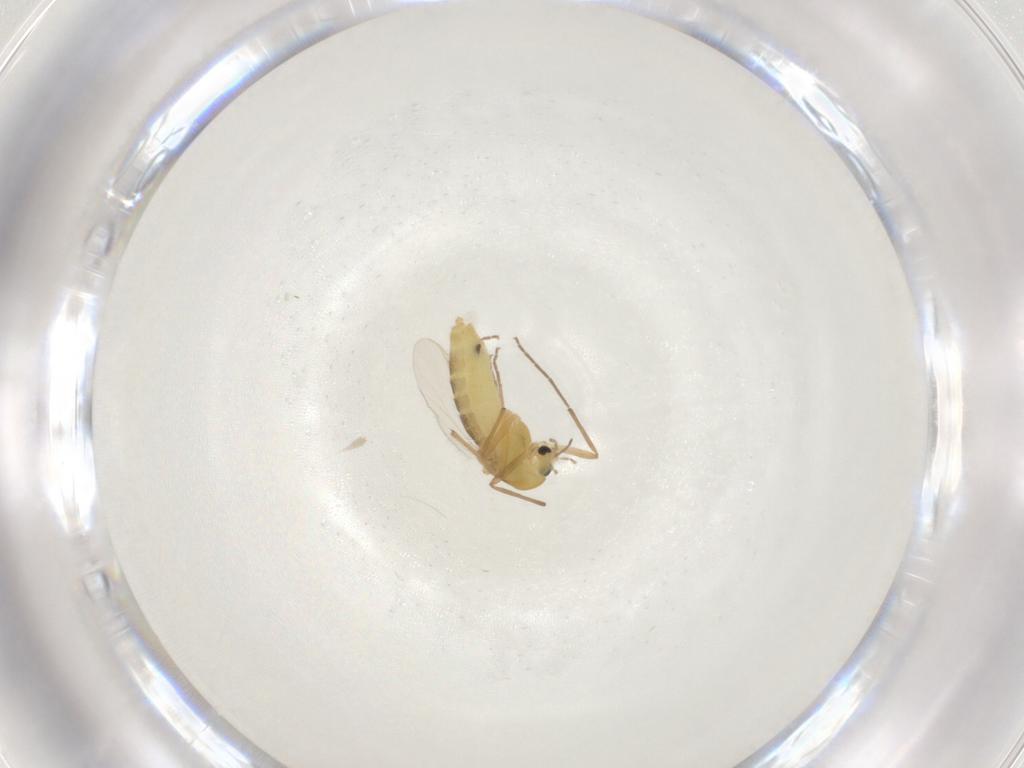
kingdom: Animalia
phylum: Arthropoda
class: Insecta
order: Diptera
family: Chironomidae
